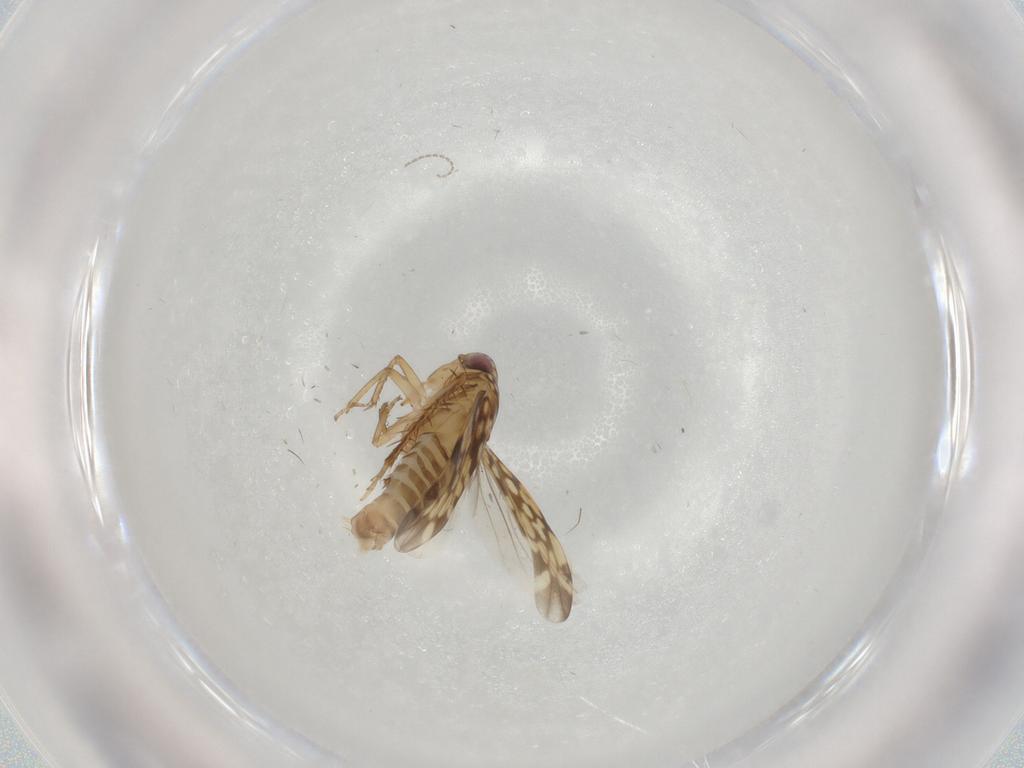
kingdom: Animalia
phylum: Arthropoda
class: Insecta
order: Hemiptera
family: Cicadellidae
